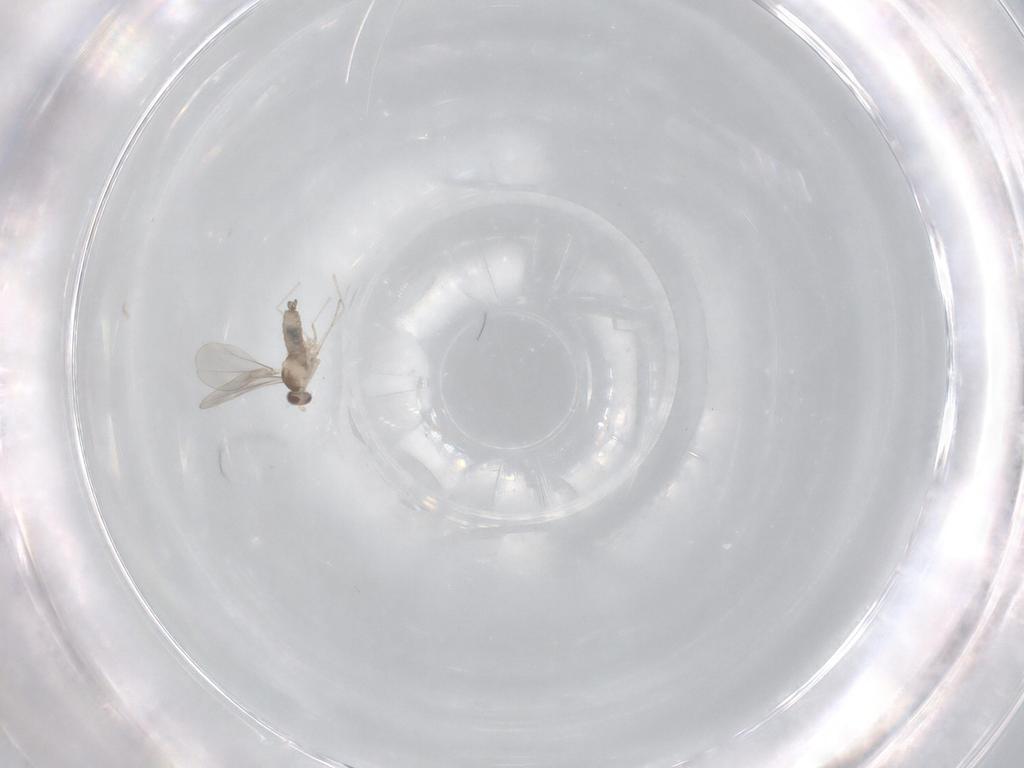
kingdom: Animalia
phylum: Arthropoda
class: Insecta
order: Diptera
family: Cecidomyiidae
